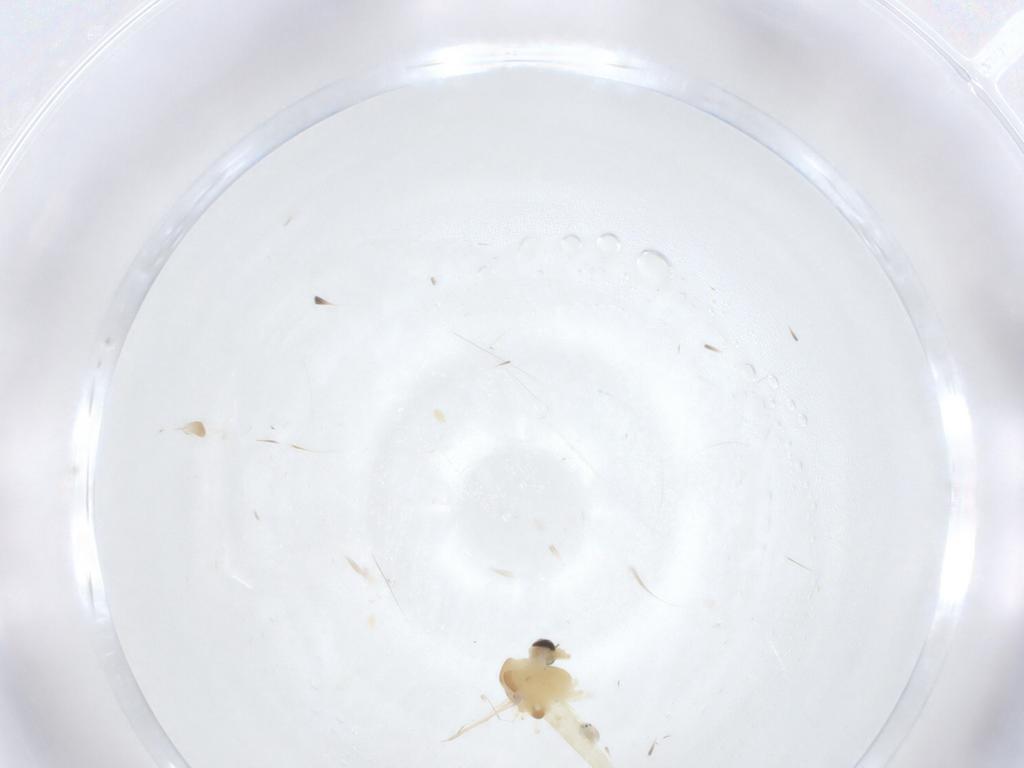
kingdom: Animalia
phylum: Arthropoda
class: Insecta
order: Diptera
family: Chironomidae
